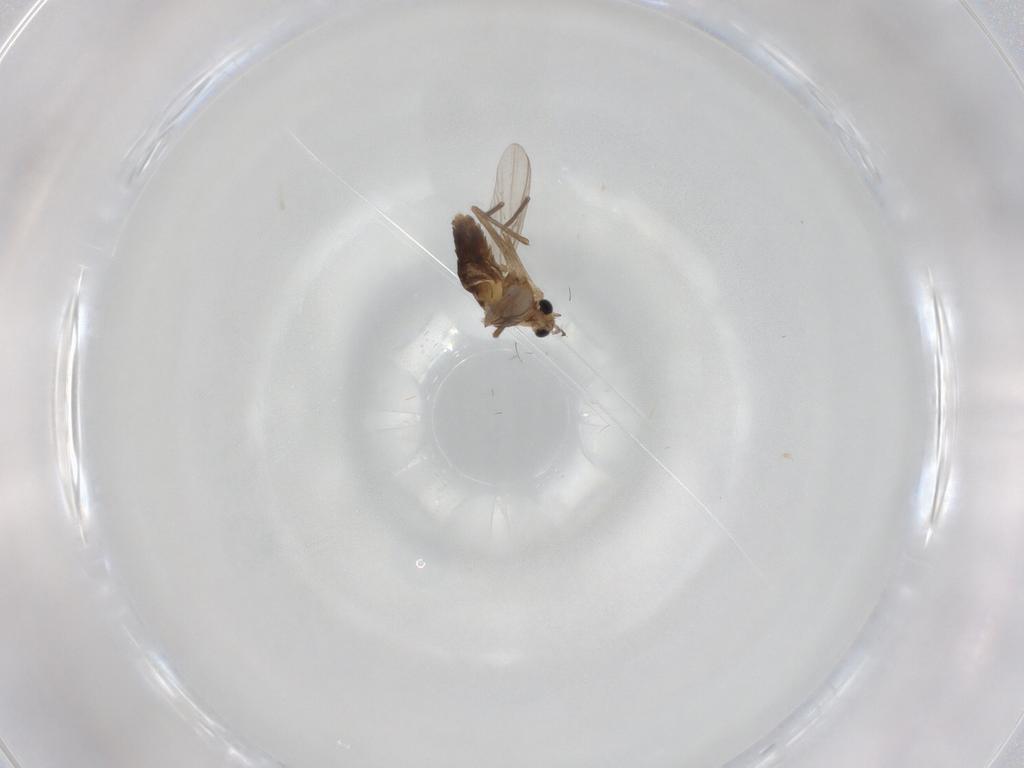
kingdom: Animalia
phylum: Arthropoda
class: Insecta
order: Diptera
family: Chironomidae
